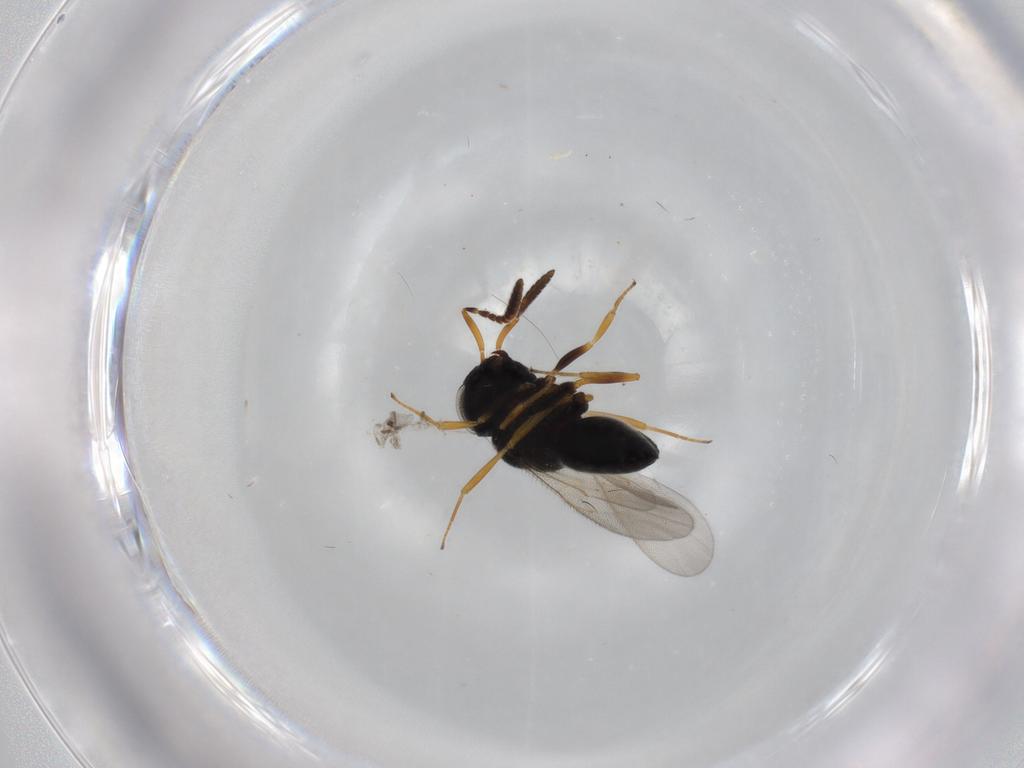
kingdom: Animalia
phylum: Arthropoda
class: Insecta
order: Hymenoptera
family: Scelionidae
